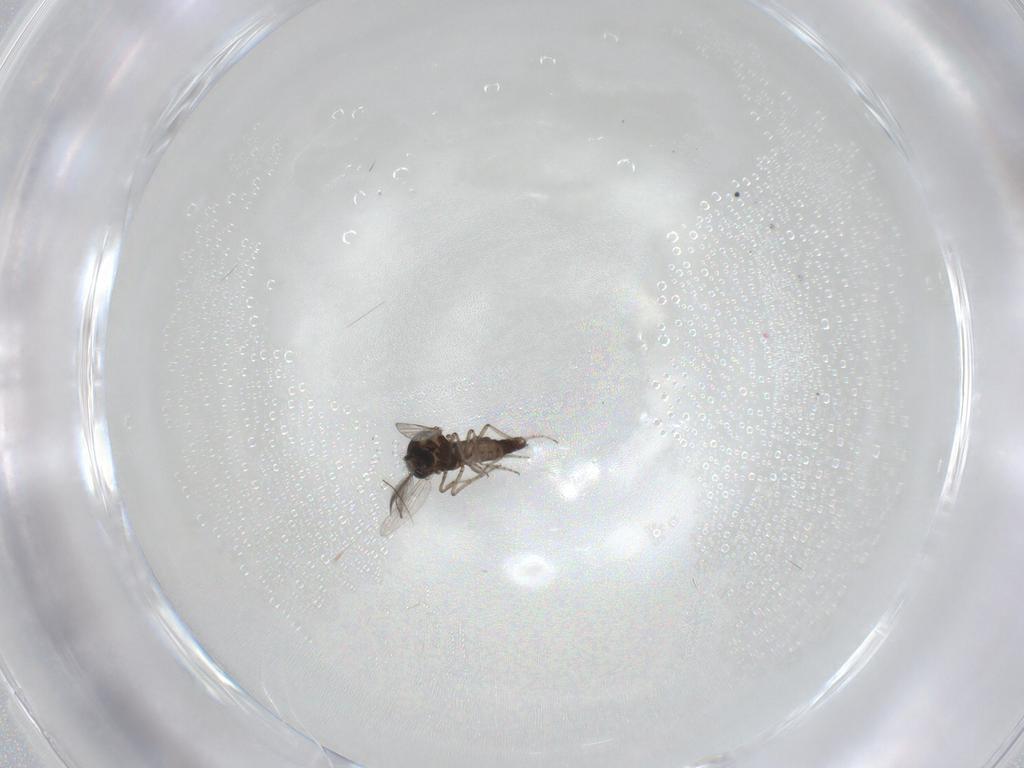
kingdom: Animalia
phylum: Arthropoda
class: Insecta
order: Diptera
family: Ceratopogonidae
